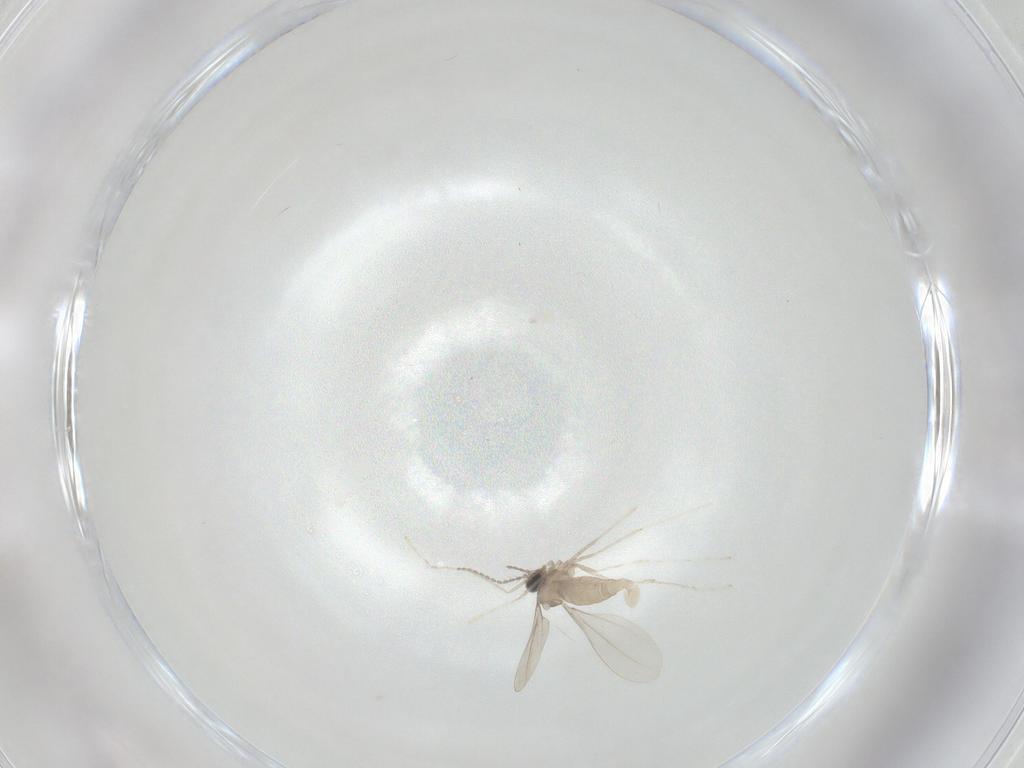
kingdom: Animalia
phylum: Arthropoda
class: Insecta
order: Diptera
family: Cecidomyiidae
